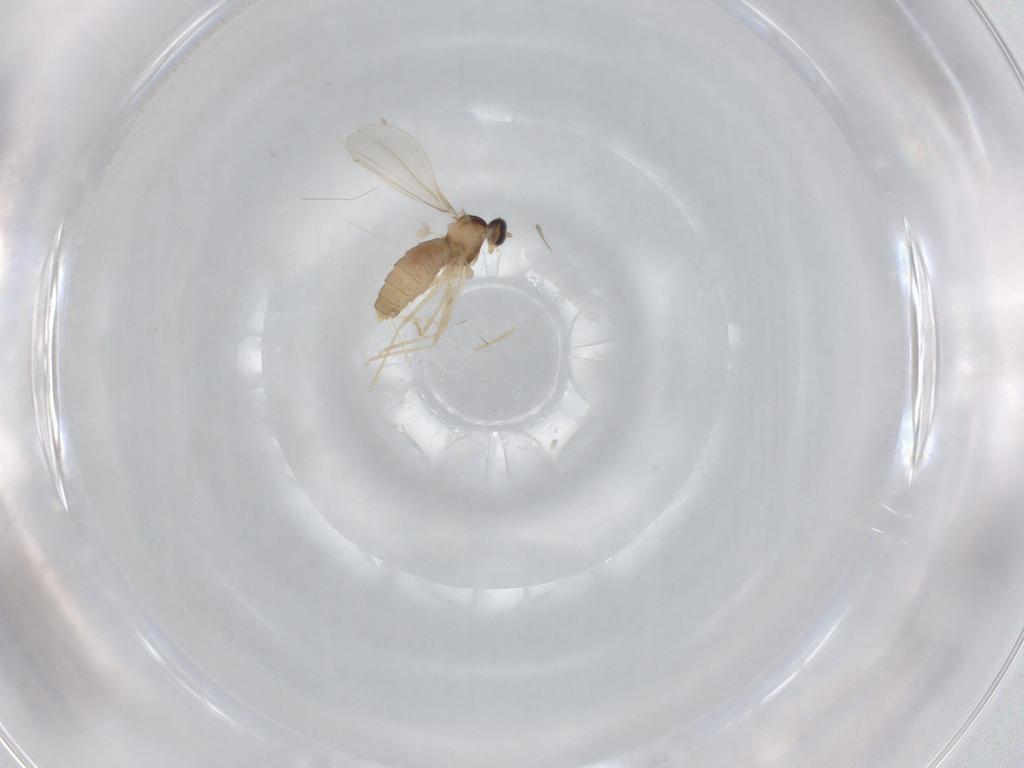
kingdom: Animalia
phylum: Arthropoda
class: Insecta
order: Diptera
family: Cecidomyiidae
